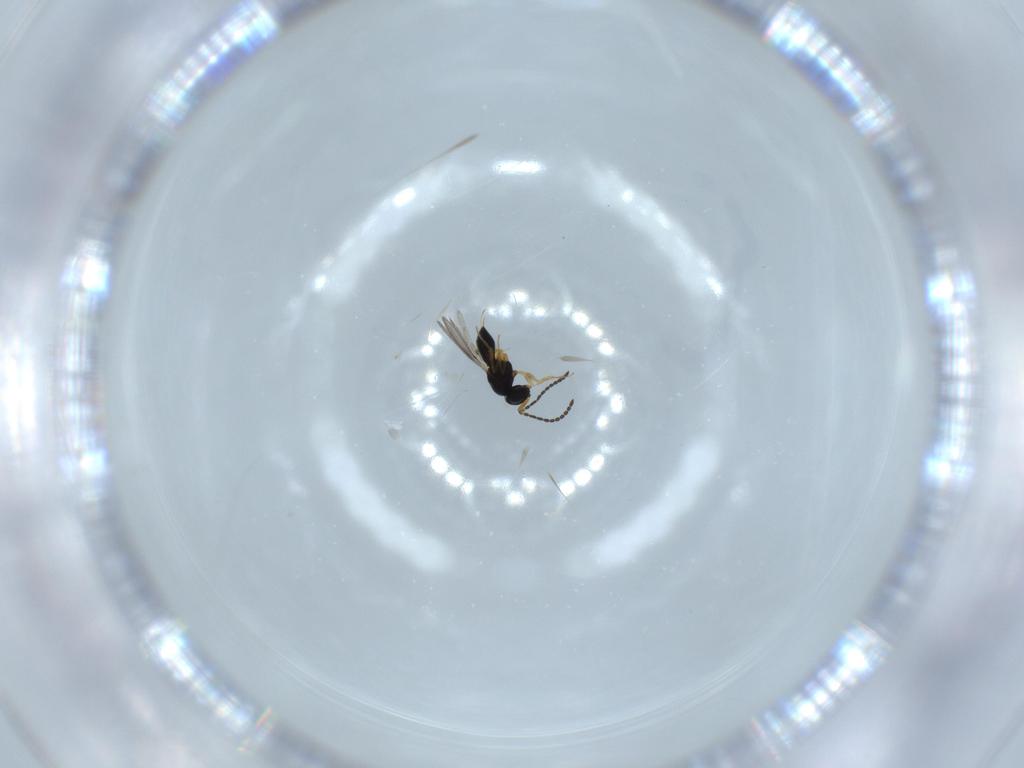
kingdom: Animalia
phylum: Arthropoda
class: Insecta
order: Hymenoptera
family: Scelionidae
